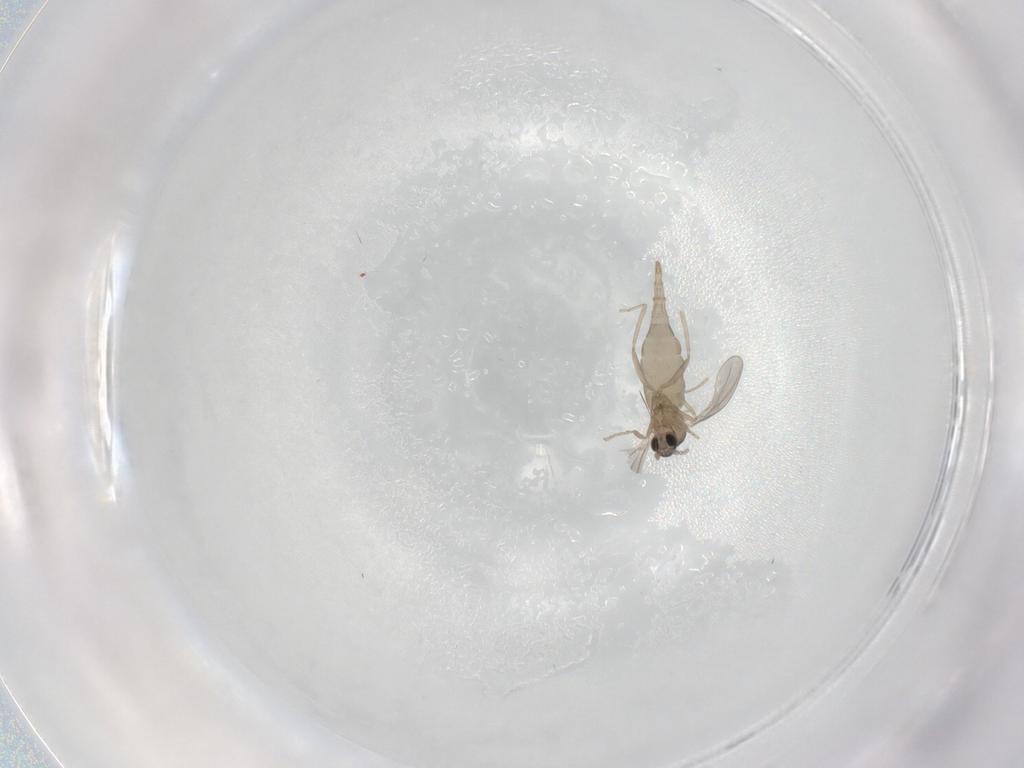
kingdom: Animalia
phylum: Arthropoda
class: Insecta
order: Diptera
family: Cecidomyiidae
